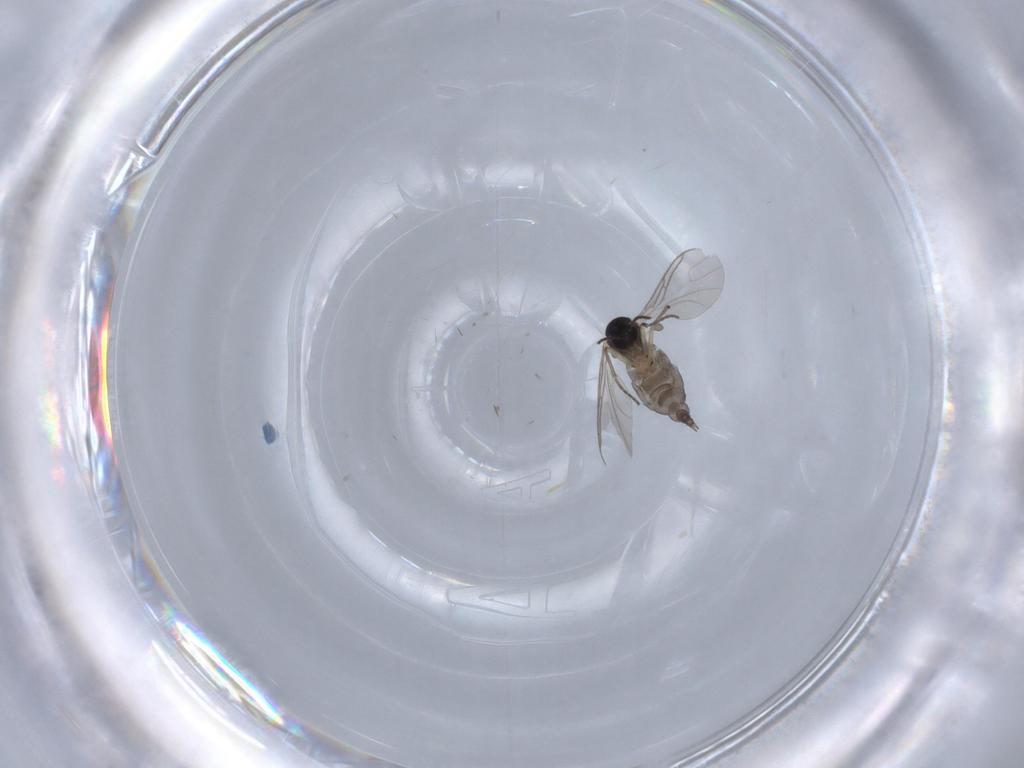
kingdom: Animalia
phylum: Arthropoda
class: Insecta
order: Diptera
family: Sciaridae
